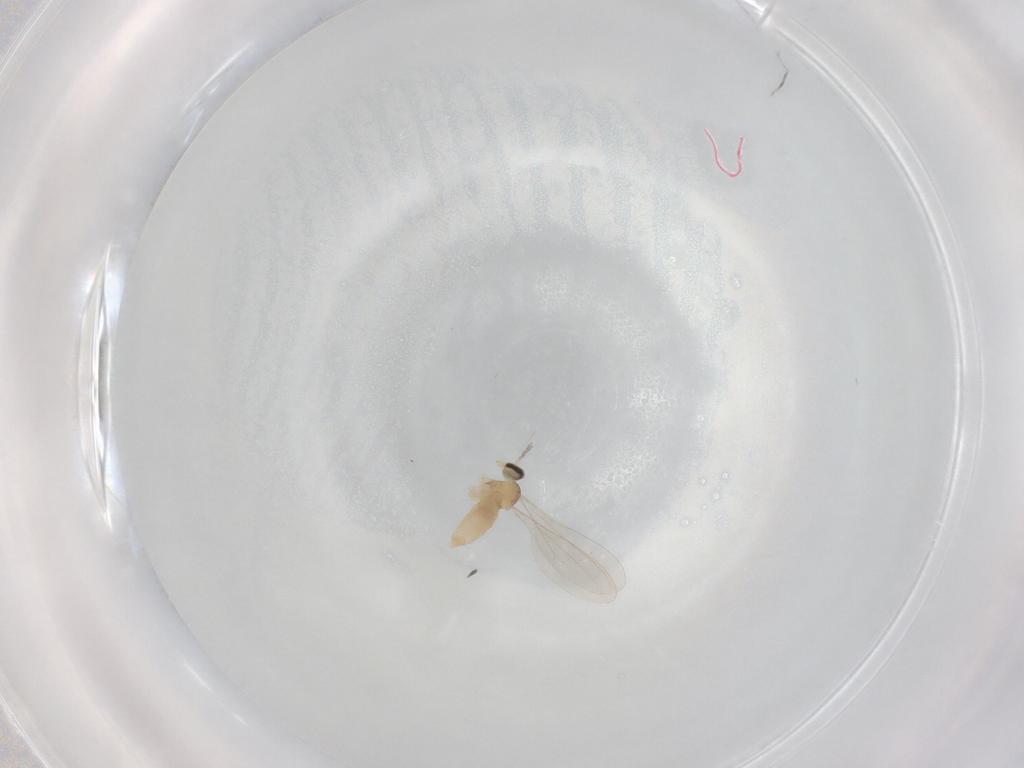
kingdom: Animalia
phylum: Arthropoda
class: Insecta
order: Diptera
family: Cecidomyiidae
